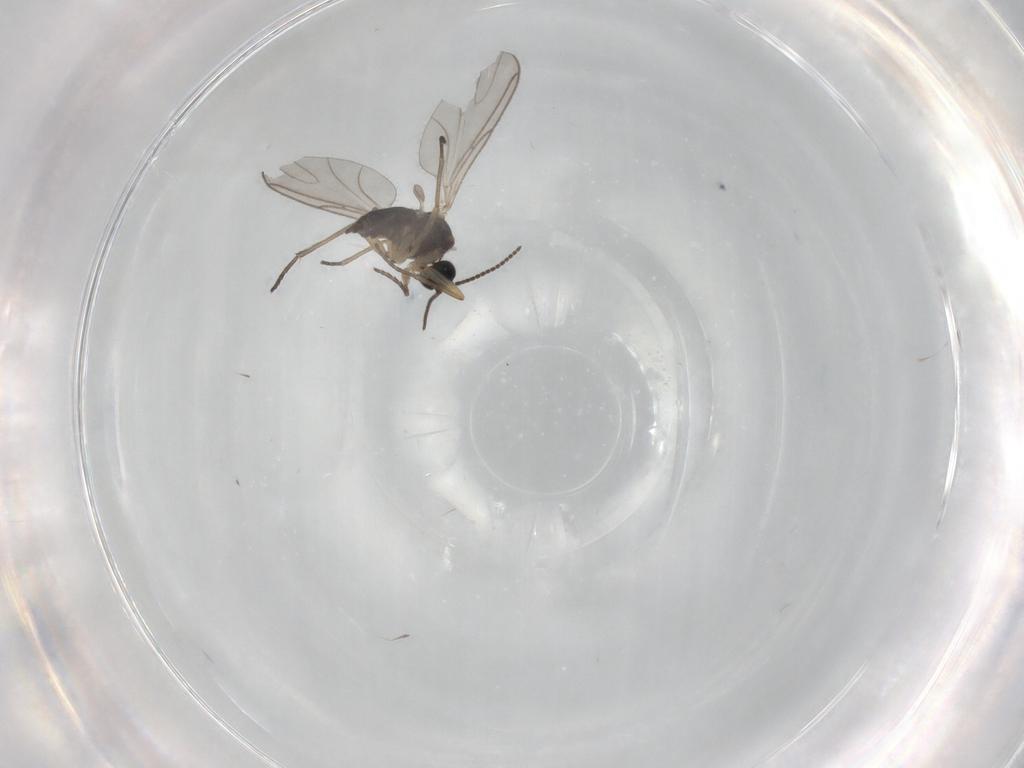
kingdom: Animalia
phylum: Arthropoda
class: Insecta
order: Diptera
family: Sciaridae
